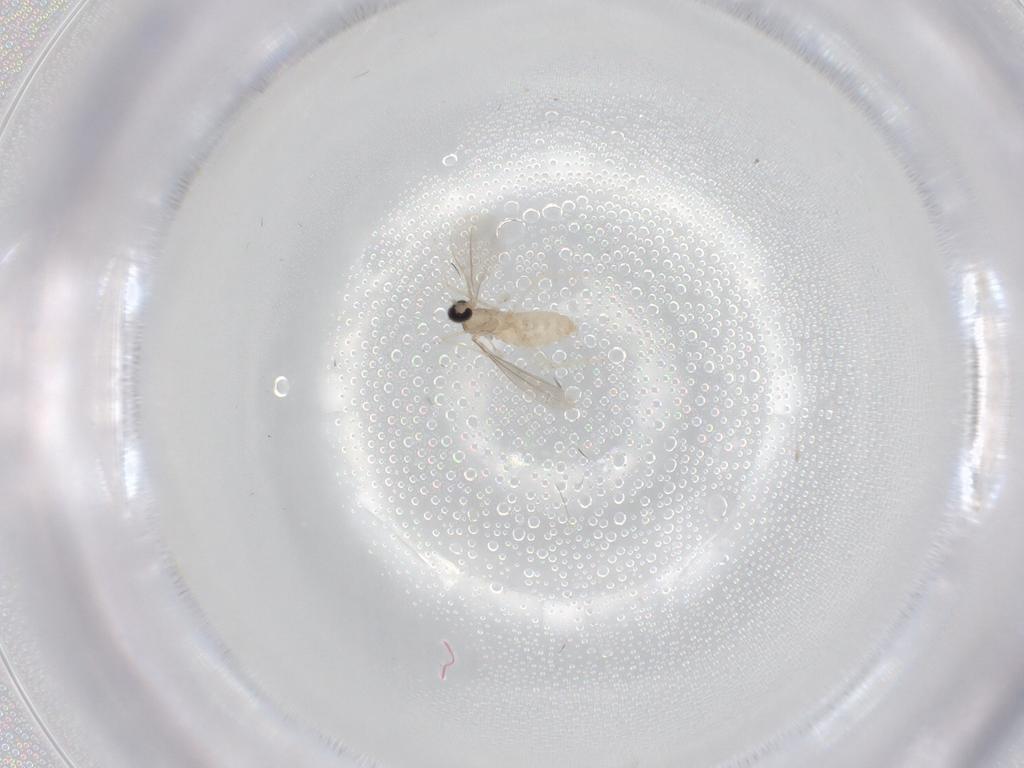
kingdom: Animalia
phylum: Arthropoda
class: Insecta
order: Diptera
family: Cecidomyiidae
